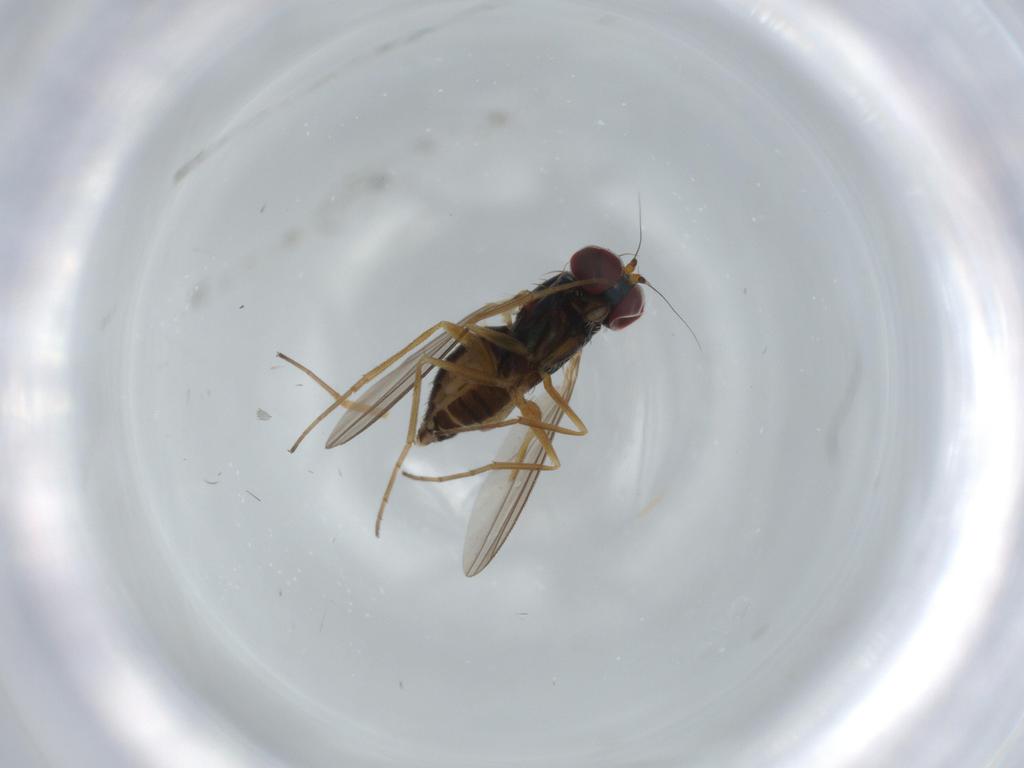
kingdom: Animalia
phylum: Arthropoda
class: Insecta
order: Diptera
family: Dolichopodidae
